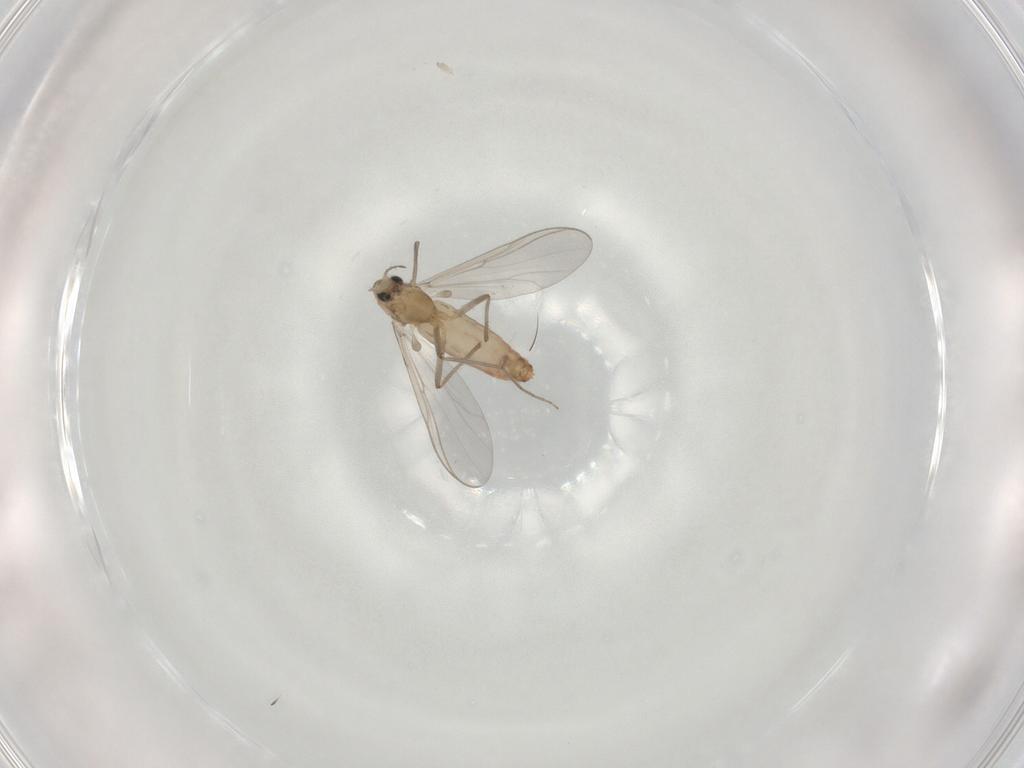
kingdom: Animalia
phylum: Arthropoda
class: Insecta
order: Diptera
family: Chironomidae
